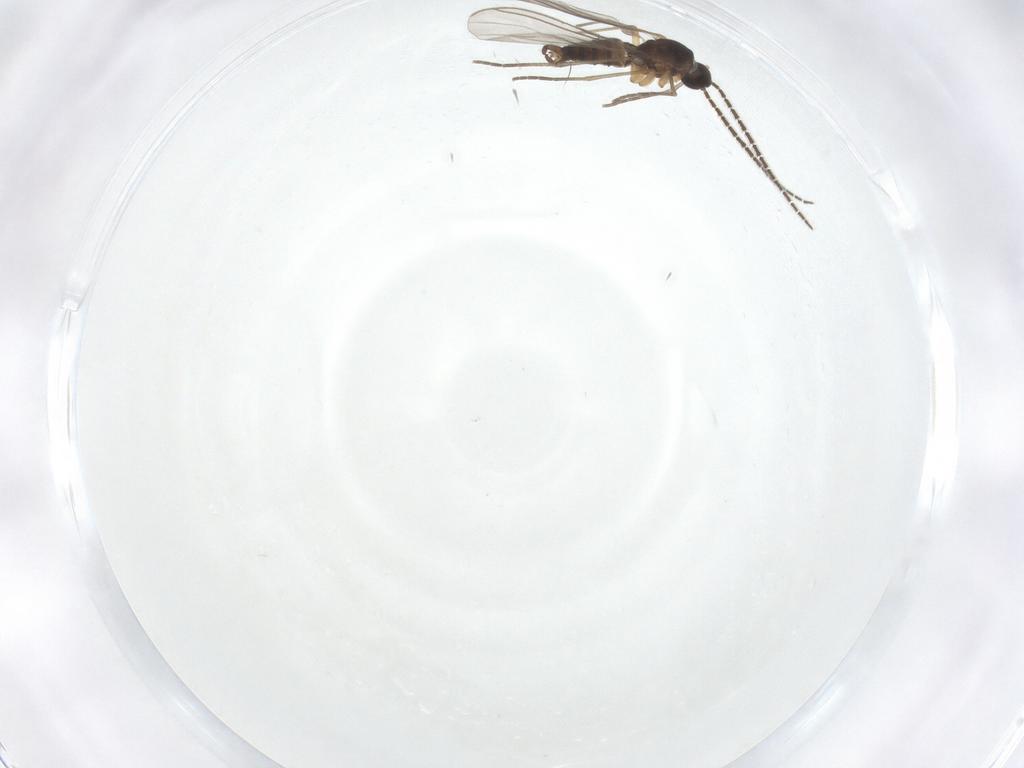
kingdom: Animalia
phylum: Arthropoda
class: Insecta
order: Diptera
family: Sciaridae
